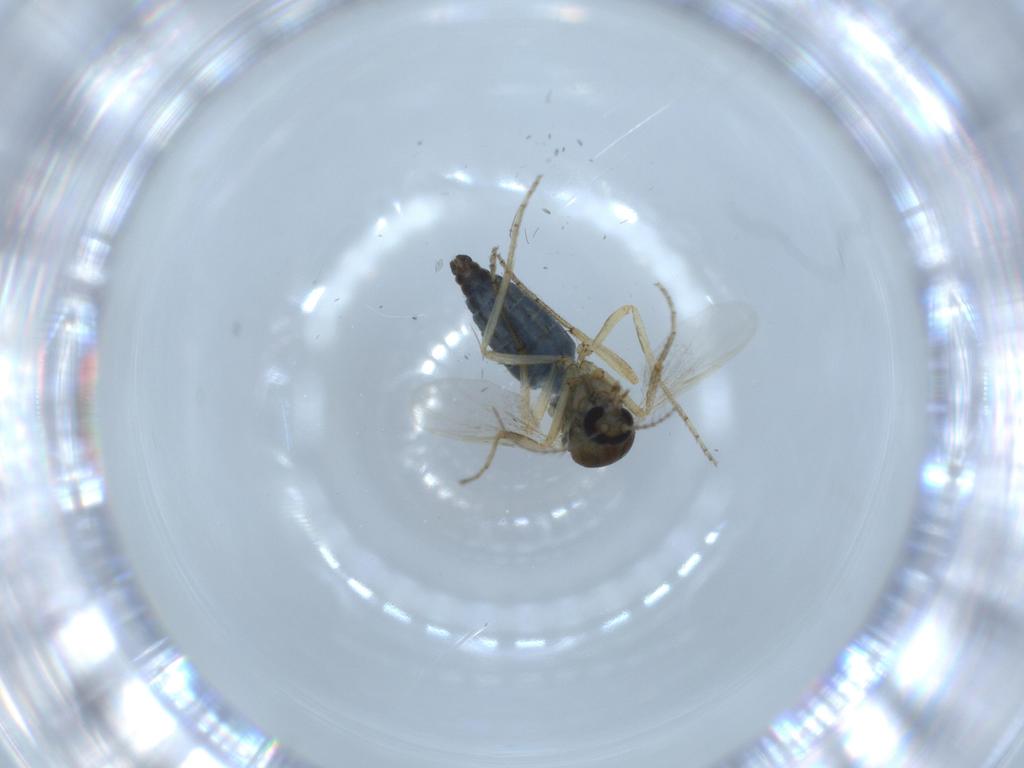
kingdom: Animalia
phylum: Arthropoda
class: Insecta
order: Diptera
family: Ceratopogonidae
